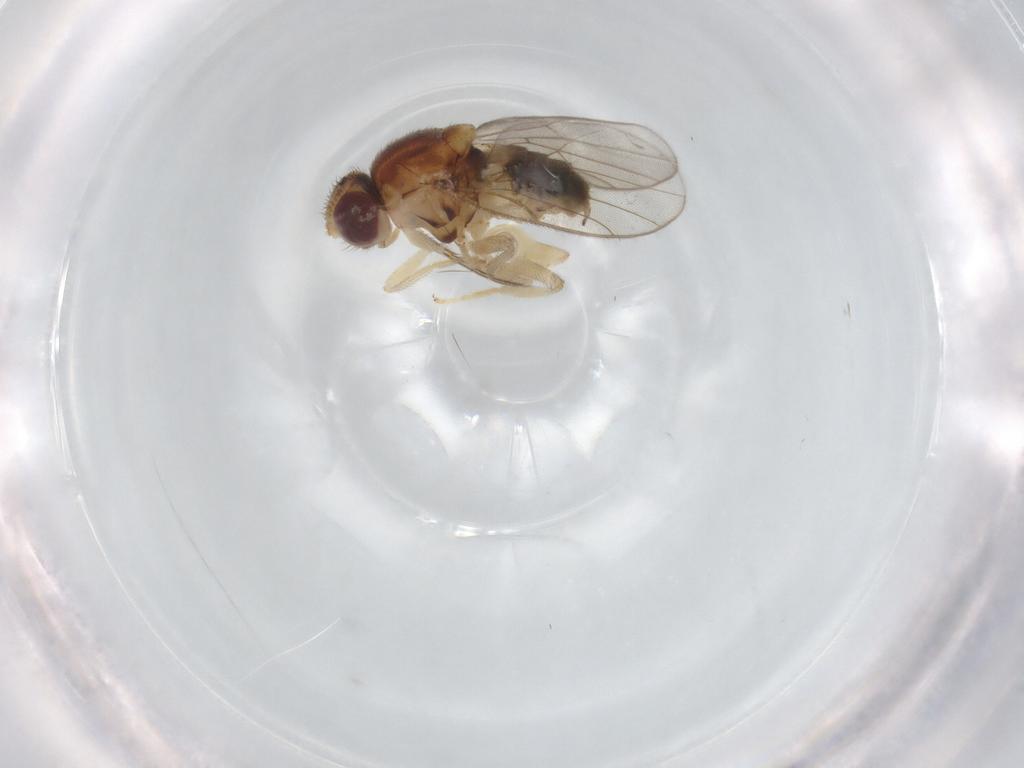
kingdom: Animalia
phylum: Arthropoda
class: Insecta
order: Diptera
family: Chloropidae
